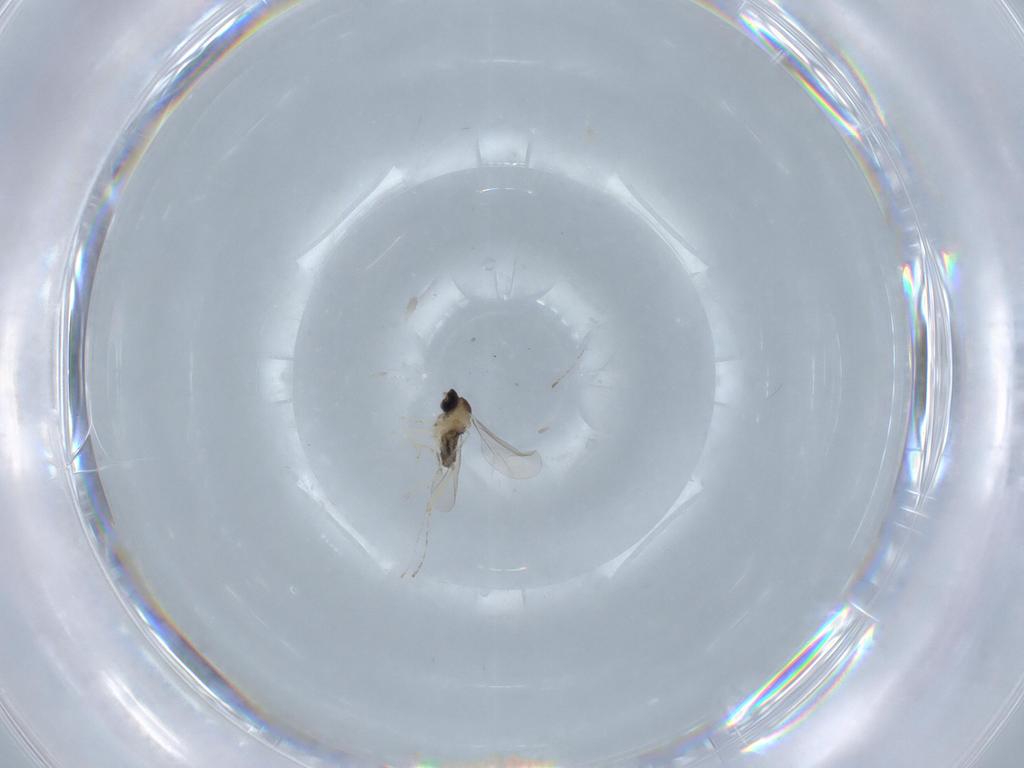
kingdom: Animalia
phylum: Arthropoda
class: Insecta
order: Diptera
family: Cecidomyiidae
